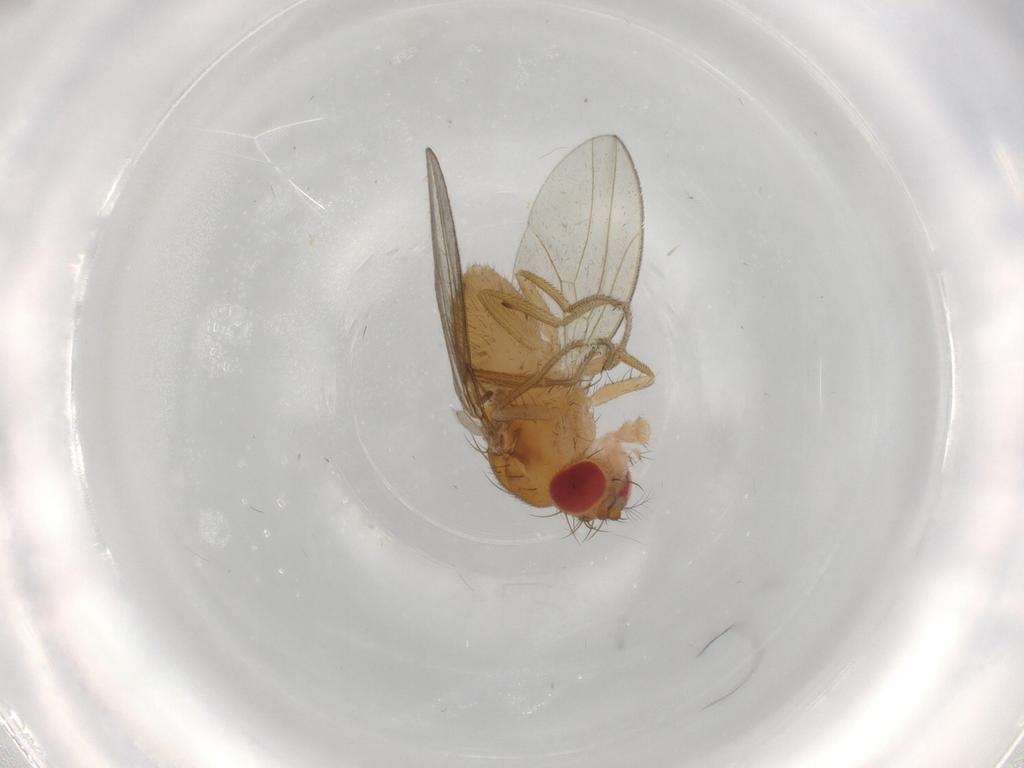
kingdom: Animalia
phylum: Arthropoda
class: Insecta
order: Diptera
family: Drosophilidae
